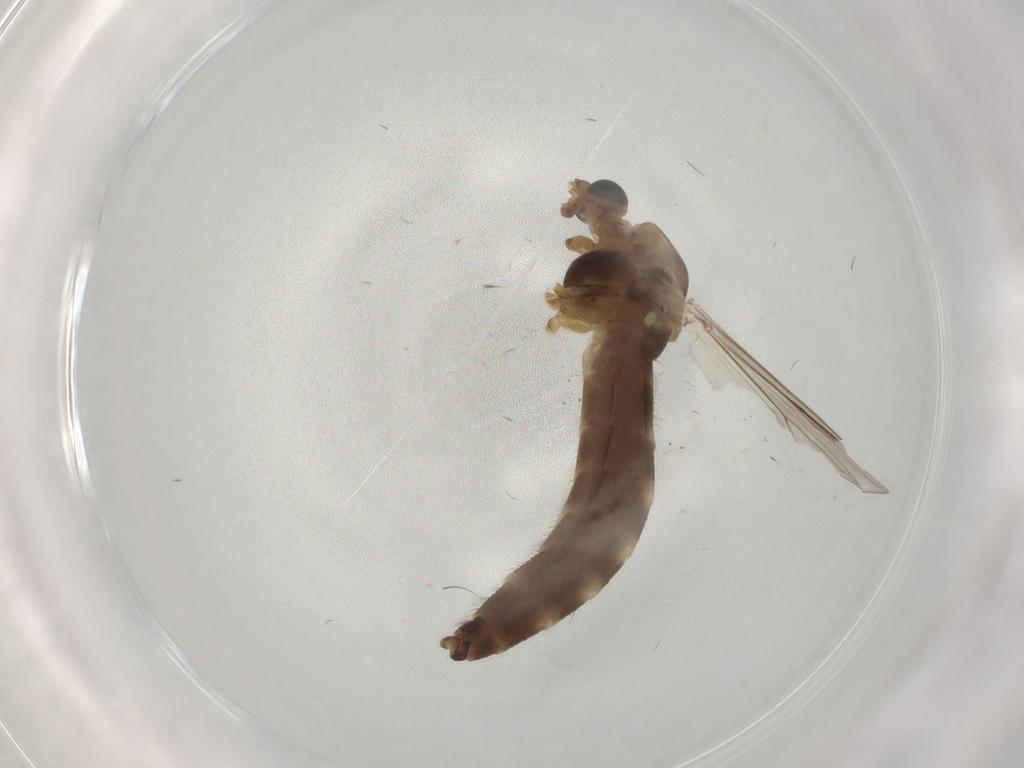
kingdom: Animalia
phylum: Arthropoda
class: Insecta
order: Diptera
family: Chironomidae
